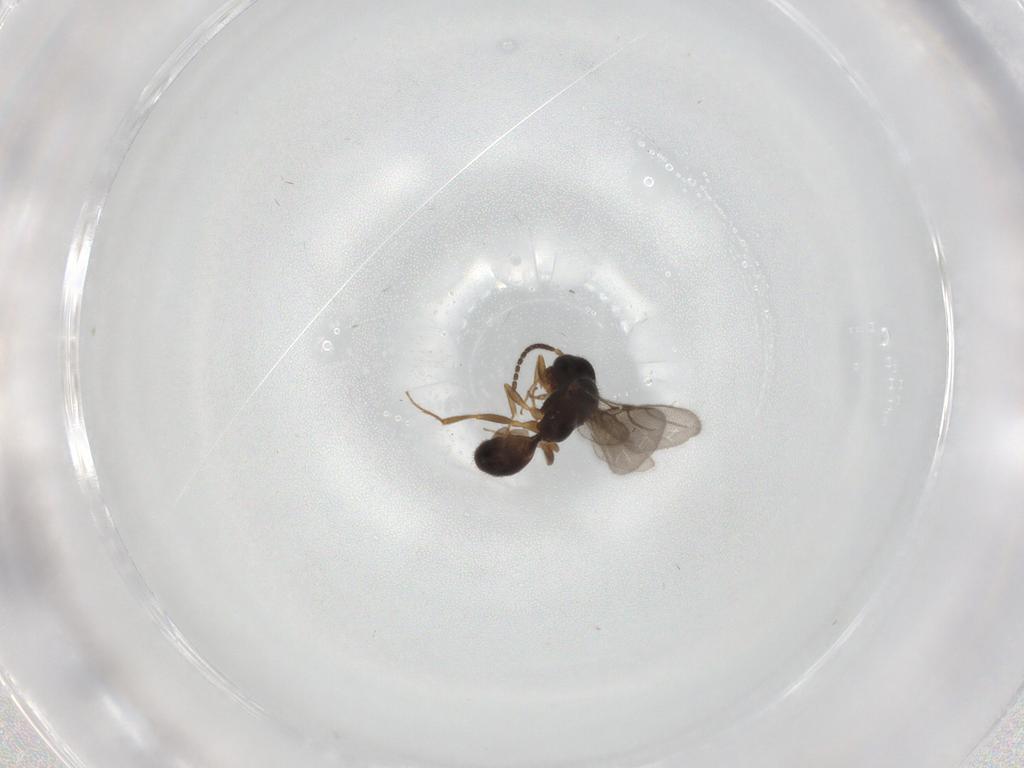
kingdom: Animalia
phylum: Arthropoda
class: Insecta
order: Hymenoptera
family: Bethylidae
